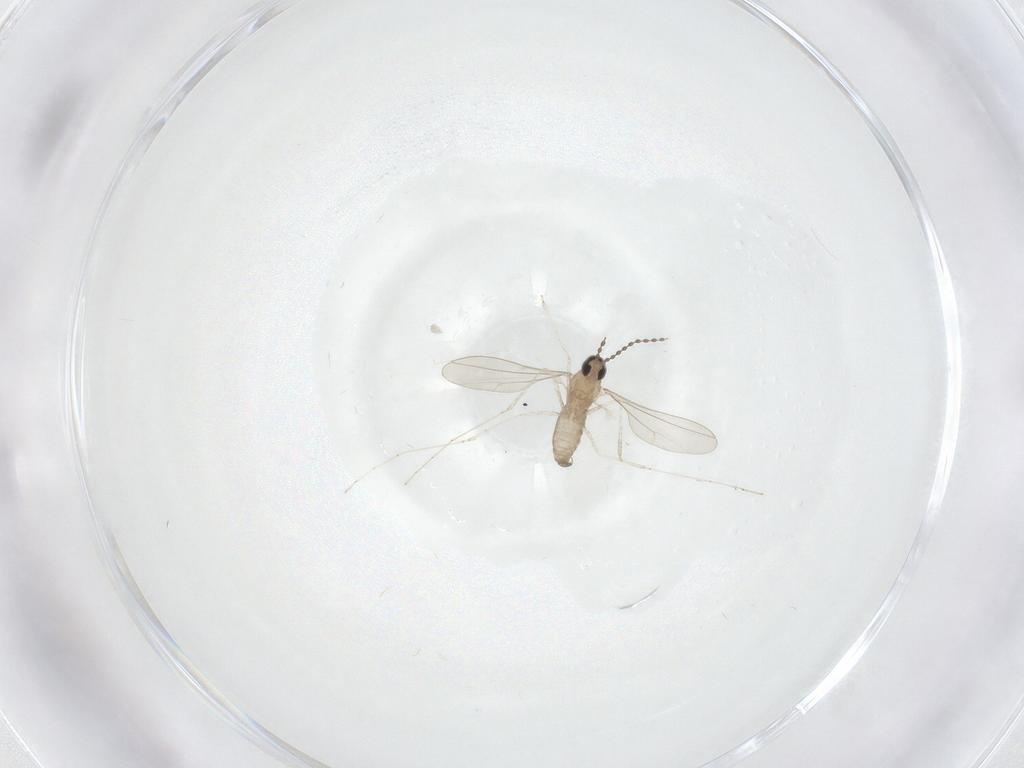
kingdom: Animalia
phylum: Arthropoda
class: Insecta
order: Diptera
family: Cecidomyiidae
